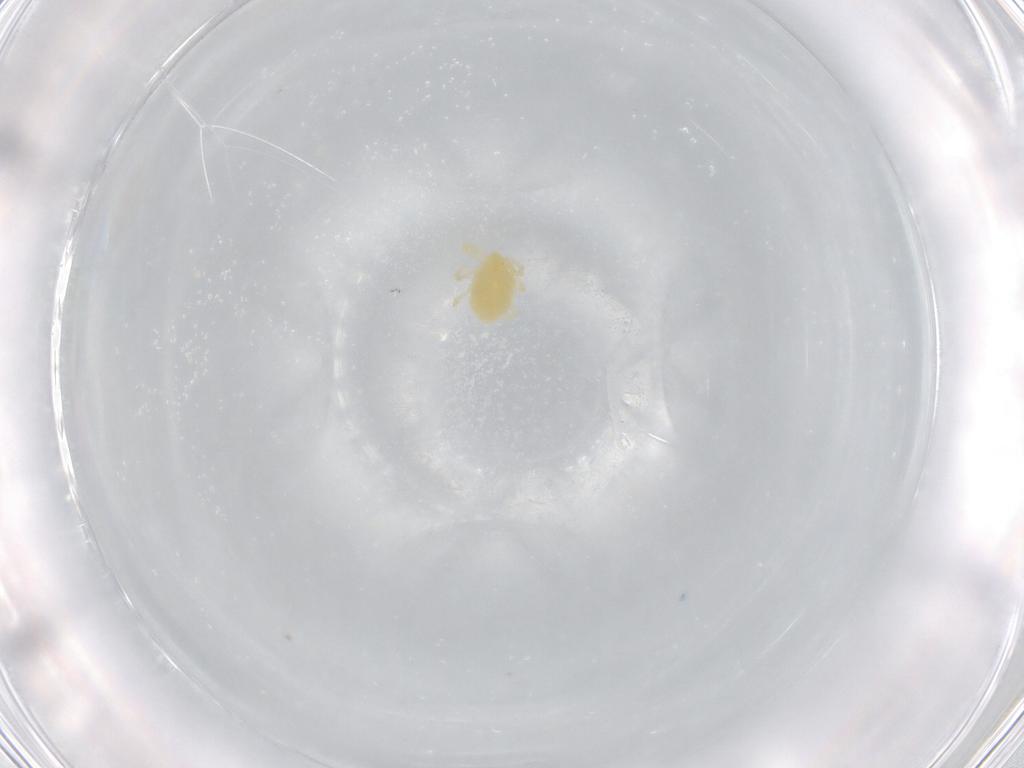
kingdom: Animalia
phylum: Arthropoda
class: Arachnida
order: Trombidiformes
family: Trombidiidae
